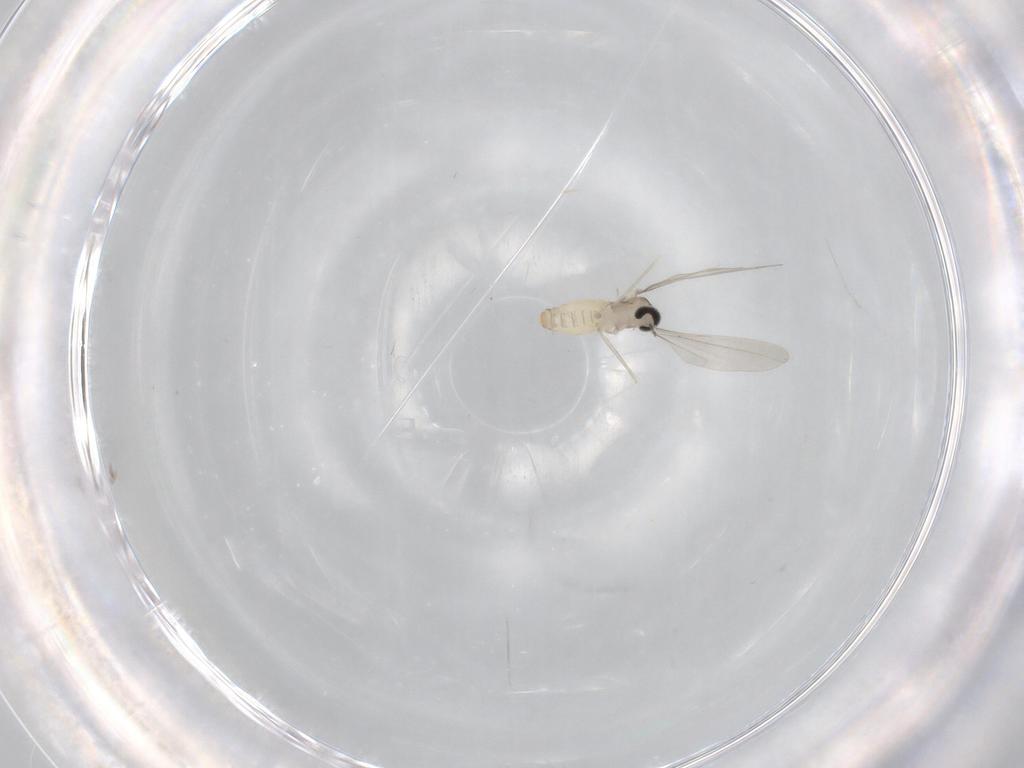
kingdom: Animalia
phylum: Arthropoda
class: Insecta
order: Diptera
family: Cecidomyiidae
